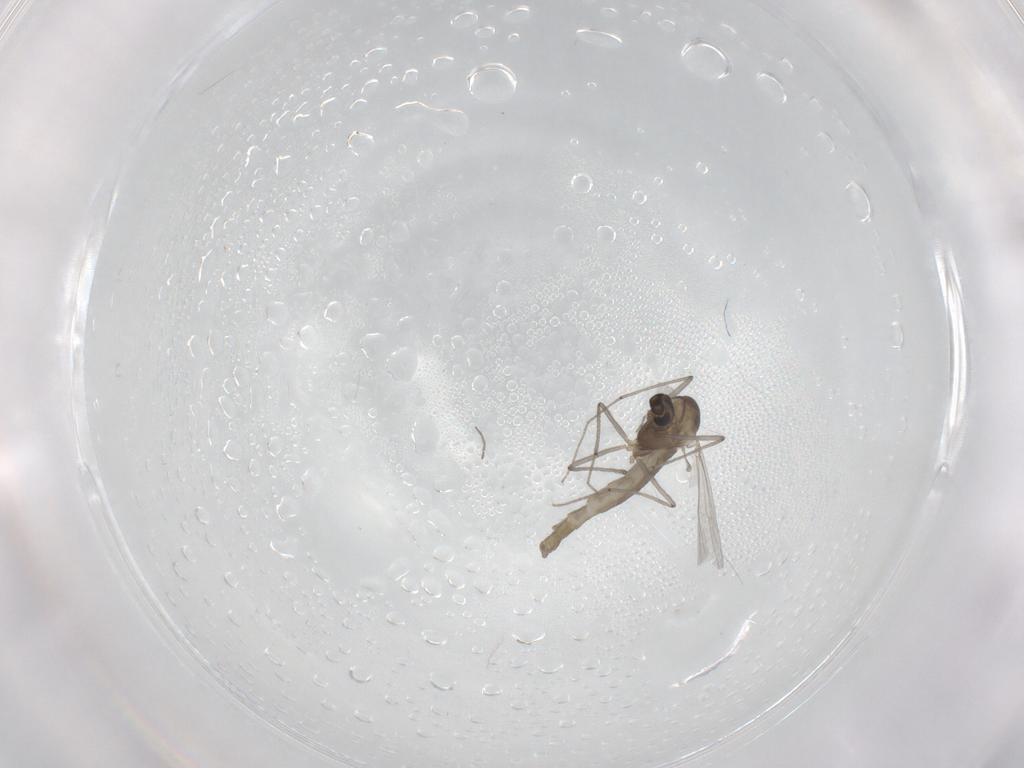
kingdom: Animalia
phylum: Arthropoda
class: Insecta
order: Diptera
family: Chironomidae
